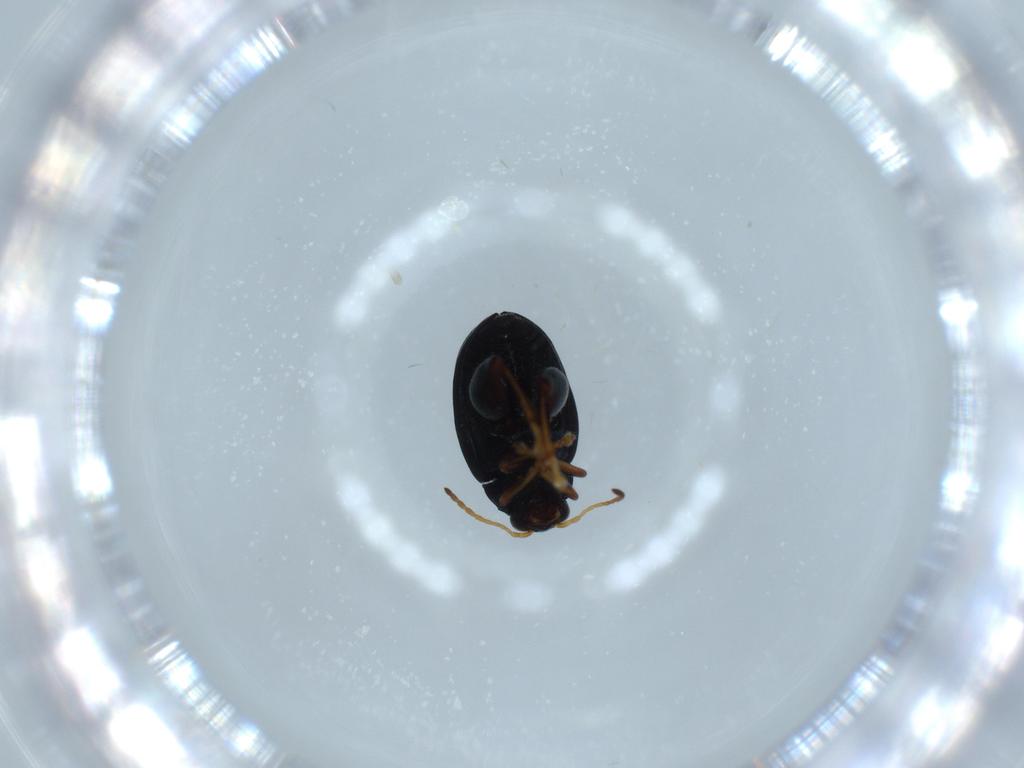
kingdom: Animalia
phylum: Arthropoda
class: Insecta
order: Coleoptera
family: Chrysomelidae
